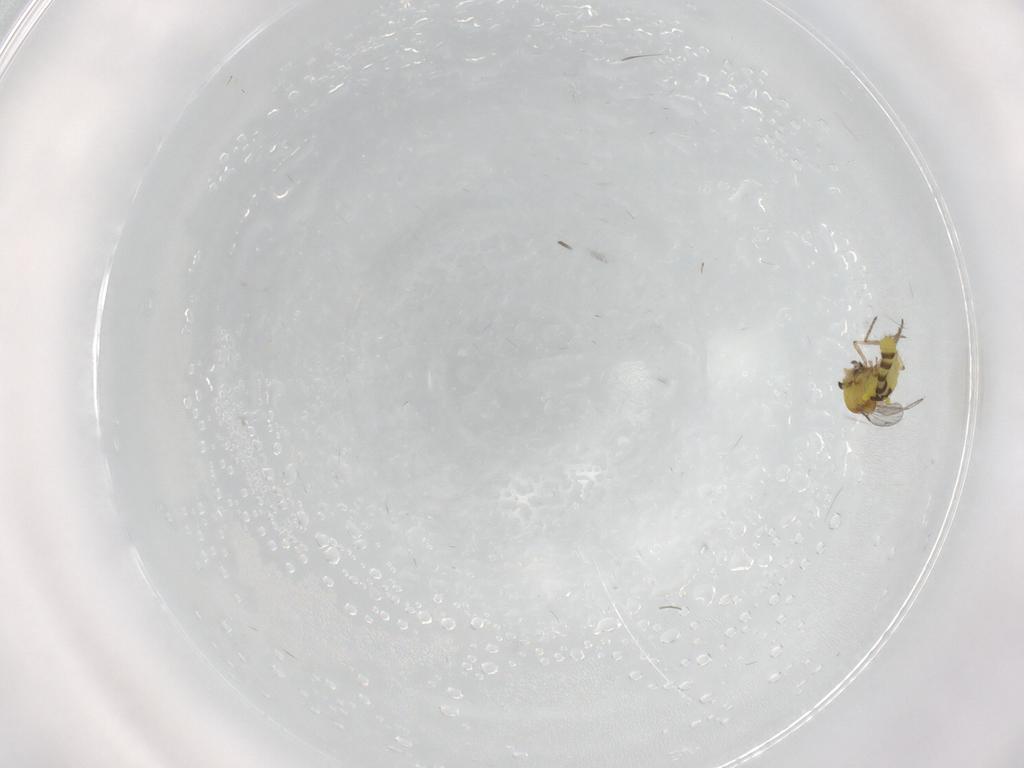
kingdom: Animalia
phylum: Arthropoda
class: Insecta
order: Diptera
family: Ceratopogonidae
